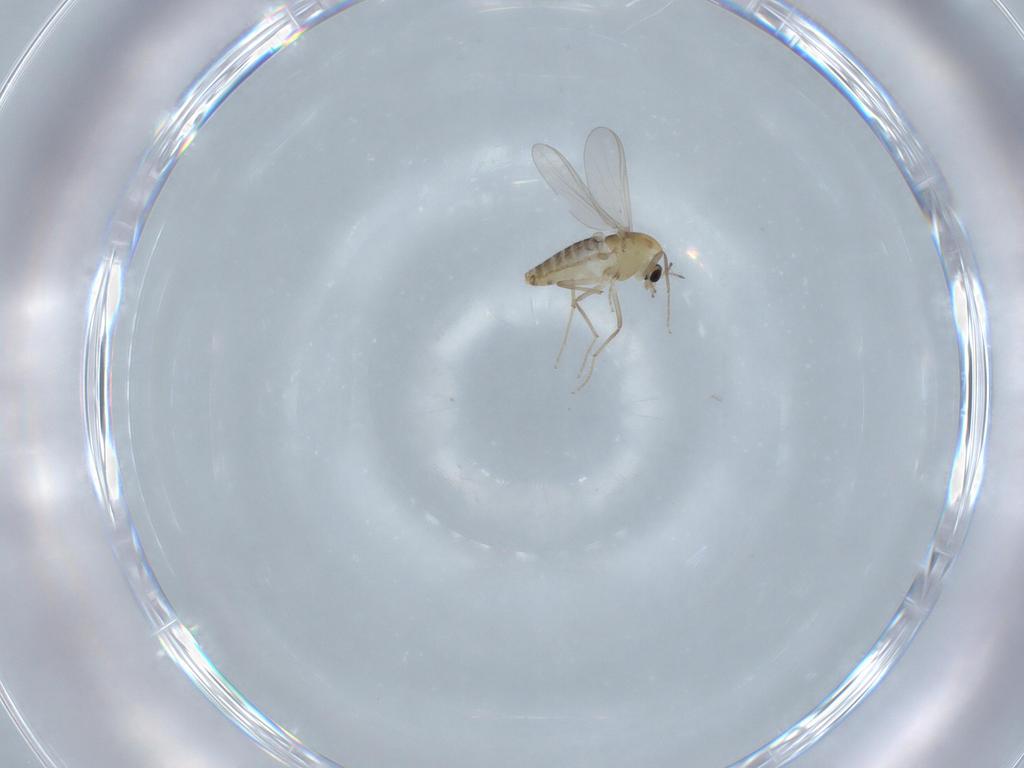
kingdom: Animalia
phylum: Arthropoda
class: Insecta
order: Diptera
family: Chironomidae
